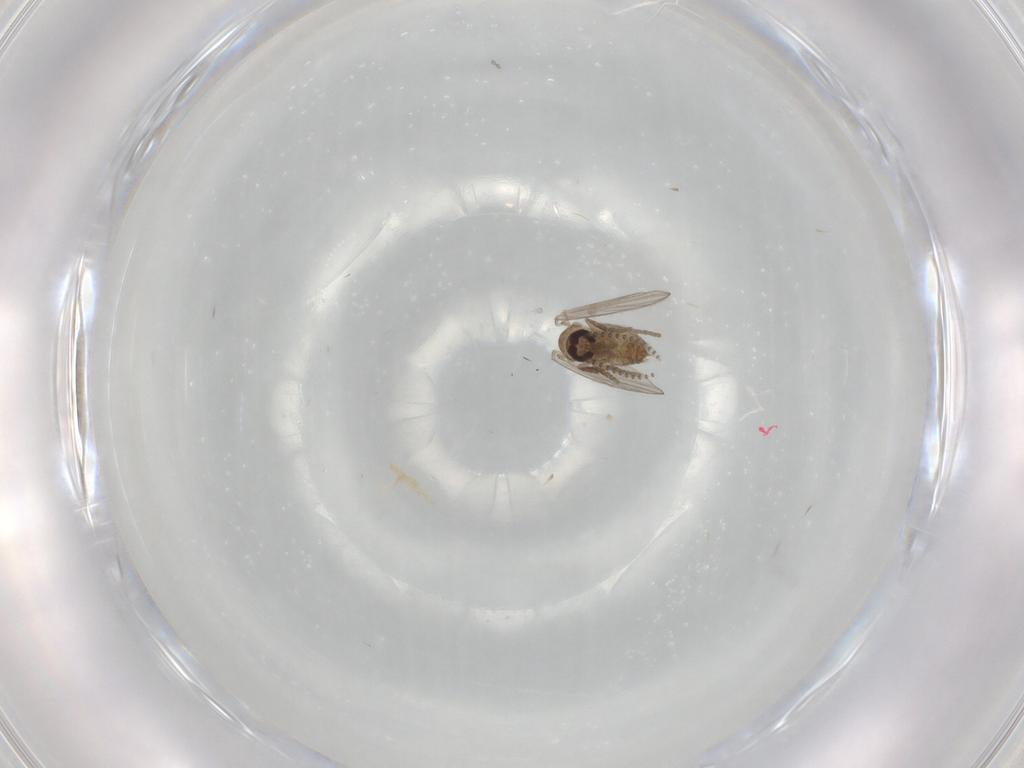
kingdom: Animalia
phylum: Arthropoda
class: Insecta
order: Diptera
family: Psychodidae
